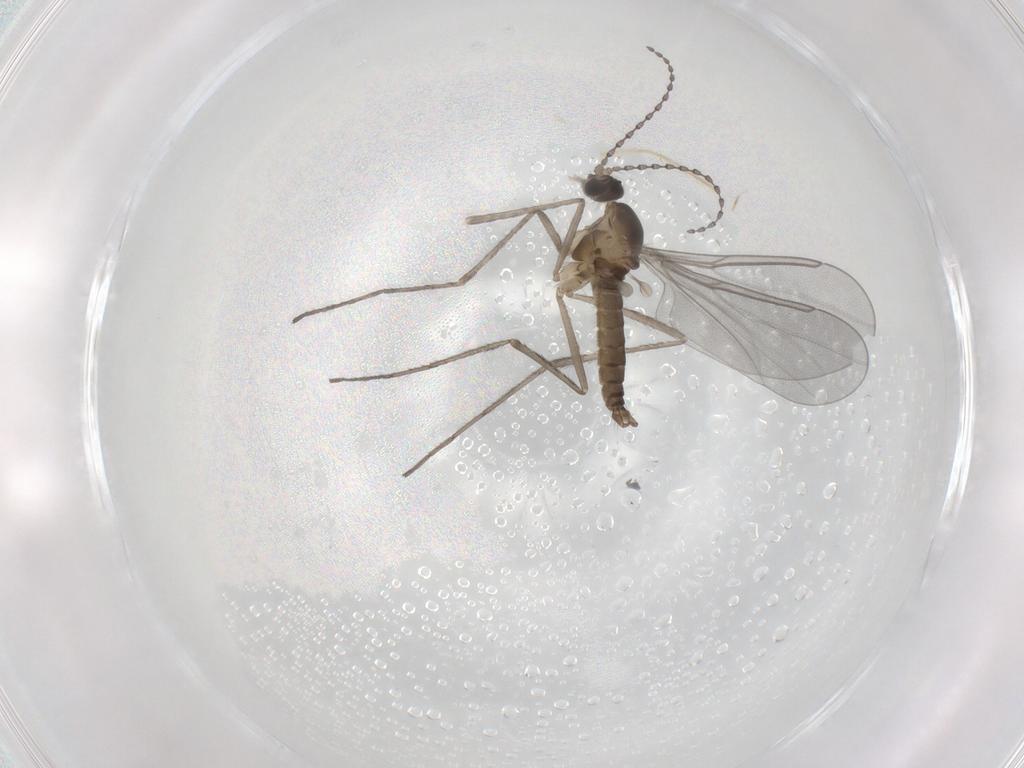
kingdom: Animalia
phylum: Arthropoda
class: Insecta
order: Diptera
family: Cecidomyiidae
